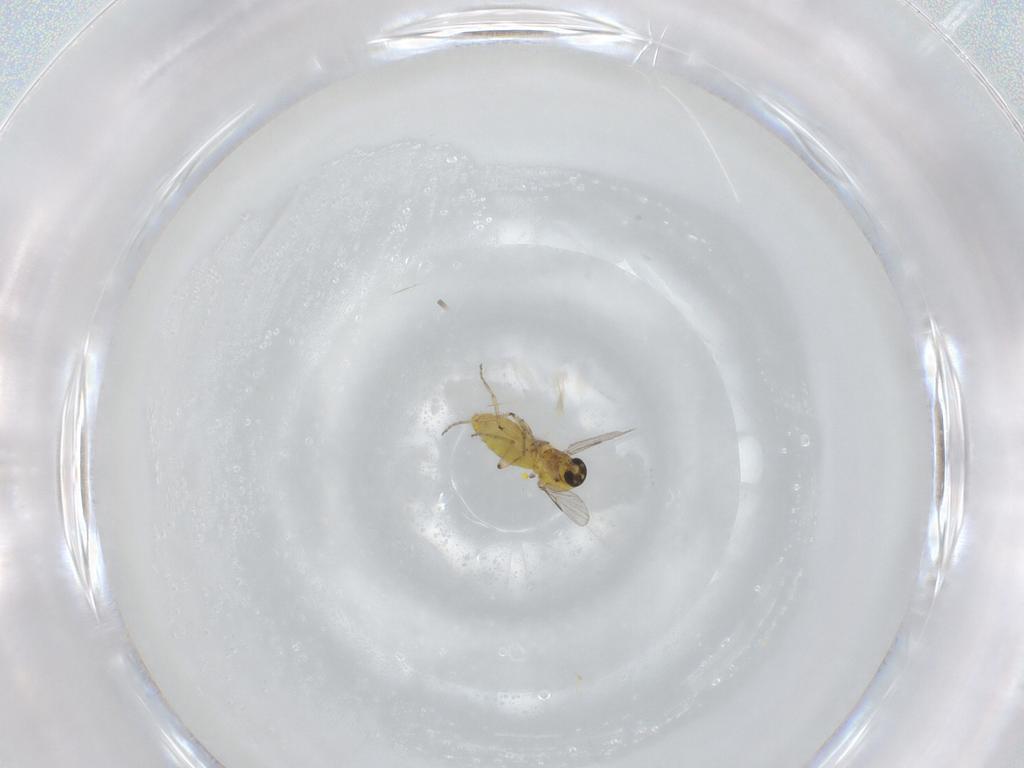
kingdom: Animalia
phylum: Arthropoda
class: Insecta
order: Diptera
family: Ceratopogonidae
